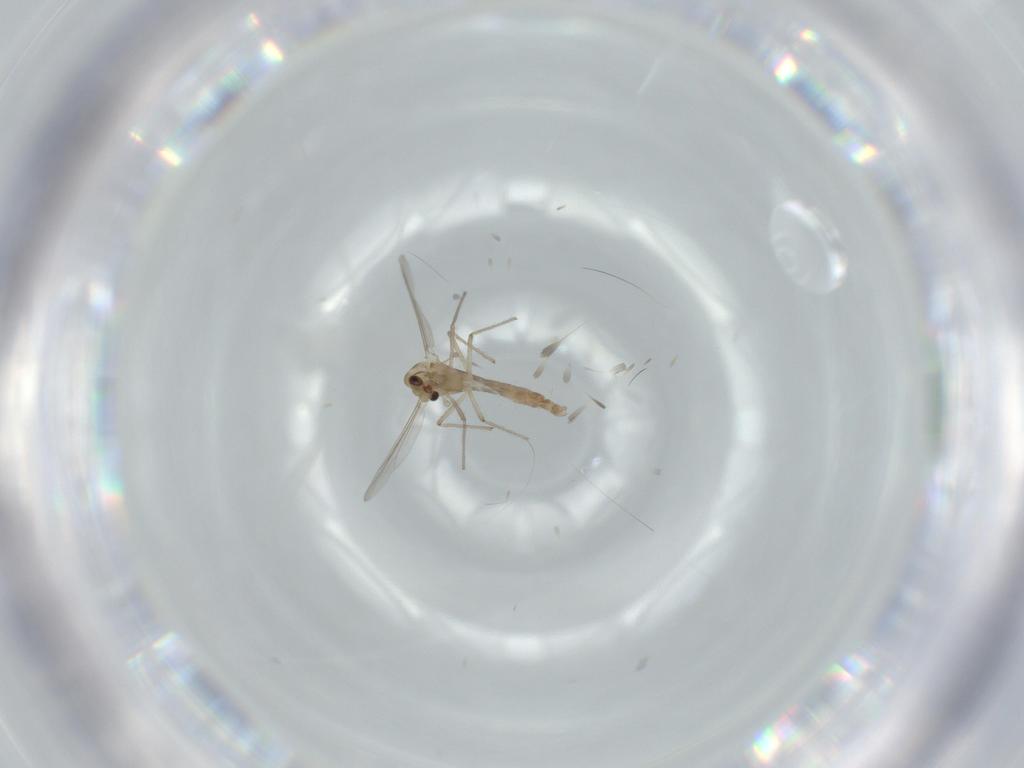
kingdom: Animalia
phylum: Arthropoda
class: Insecta
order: Diptera
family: Chironomidae
